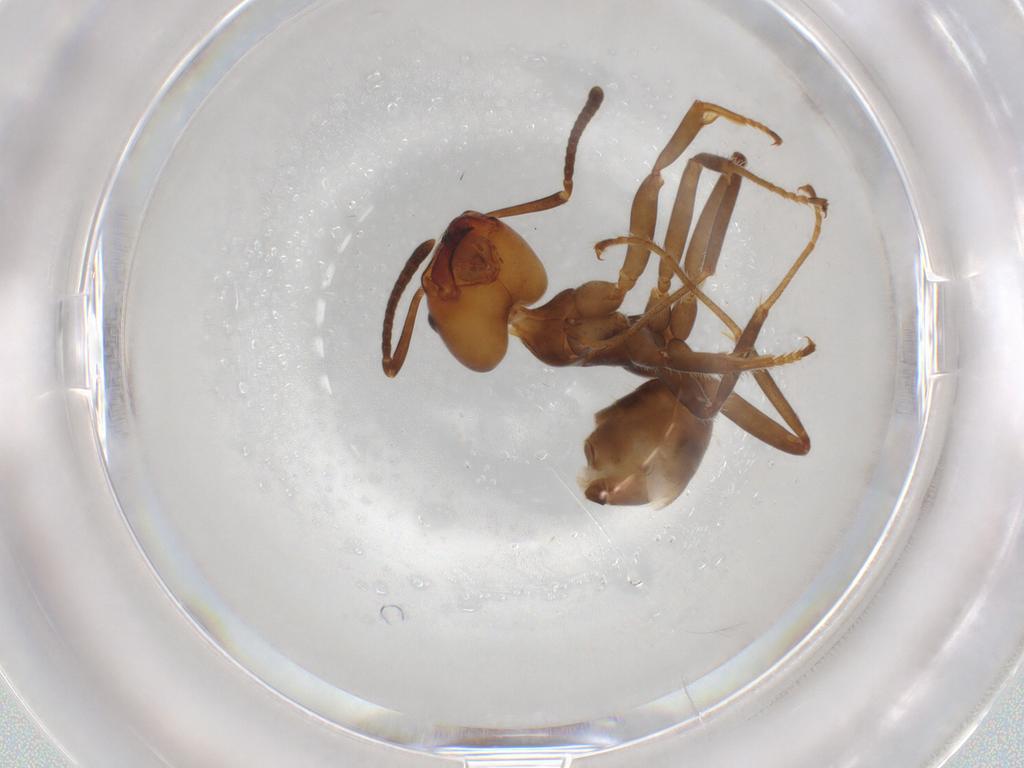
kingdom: Animalia
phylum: Arthropoda
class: Insecta
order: Hymenoptera
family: Formicidae
